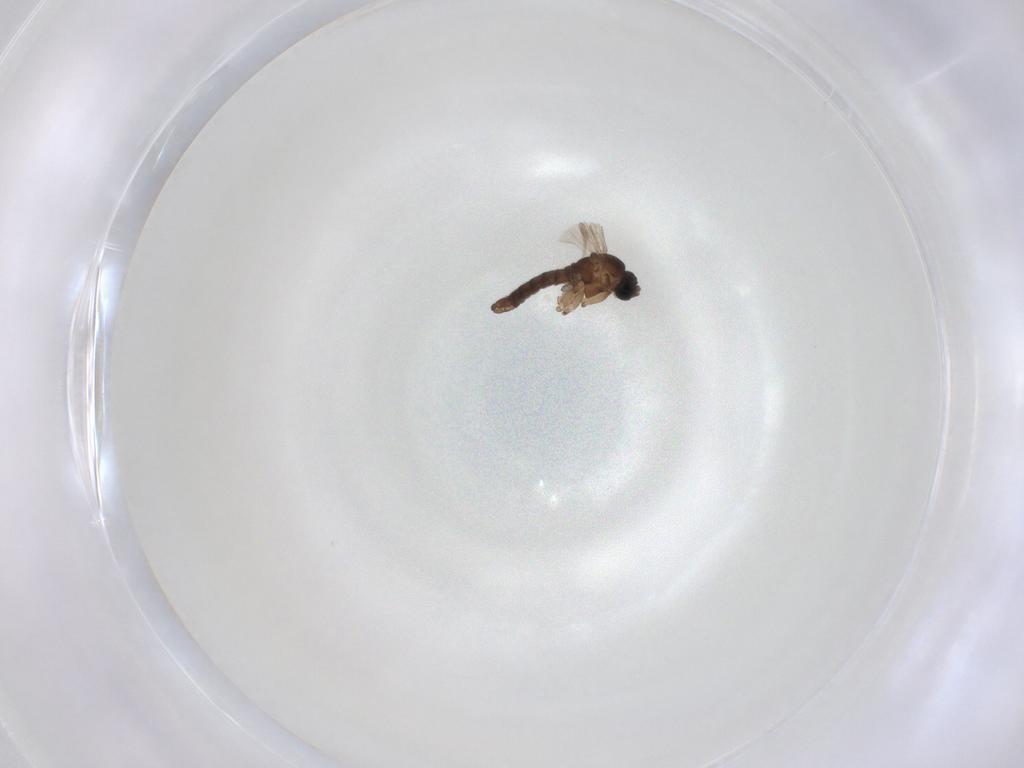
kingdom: Animalia
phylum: Arthropoda
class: Insecta
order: Diptera
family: Sciaridae
